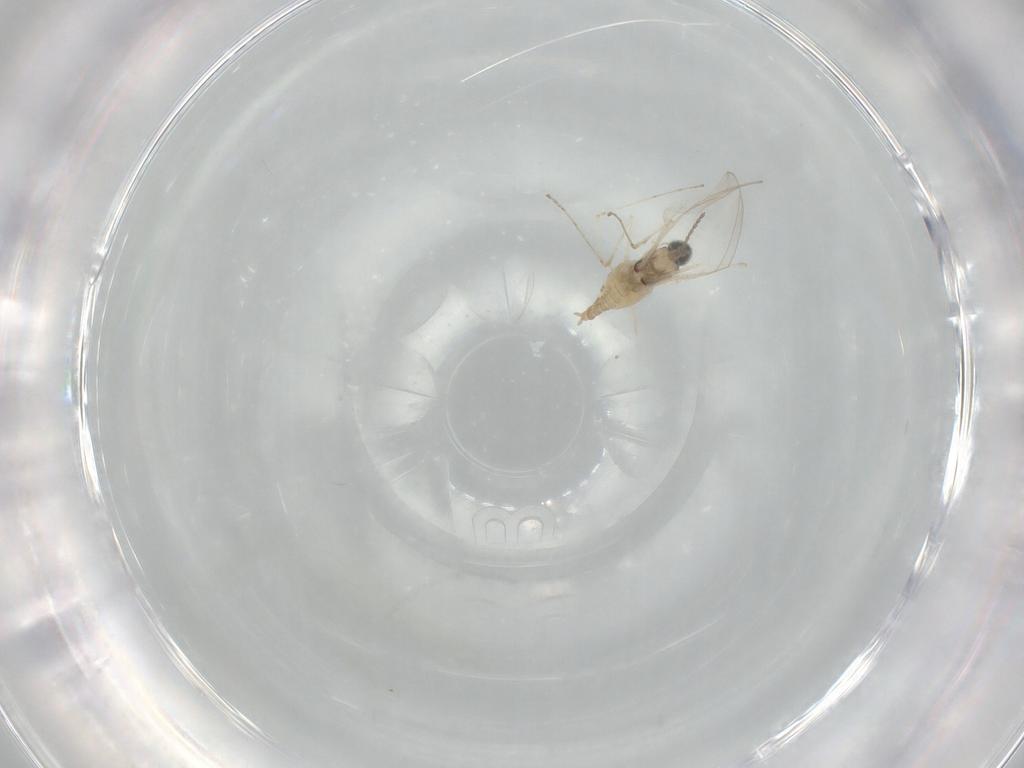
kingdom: Animalia
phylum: Arthropoda
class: Insecta
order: Diptera
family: Cecidomyiidae
